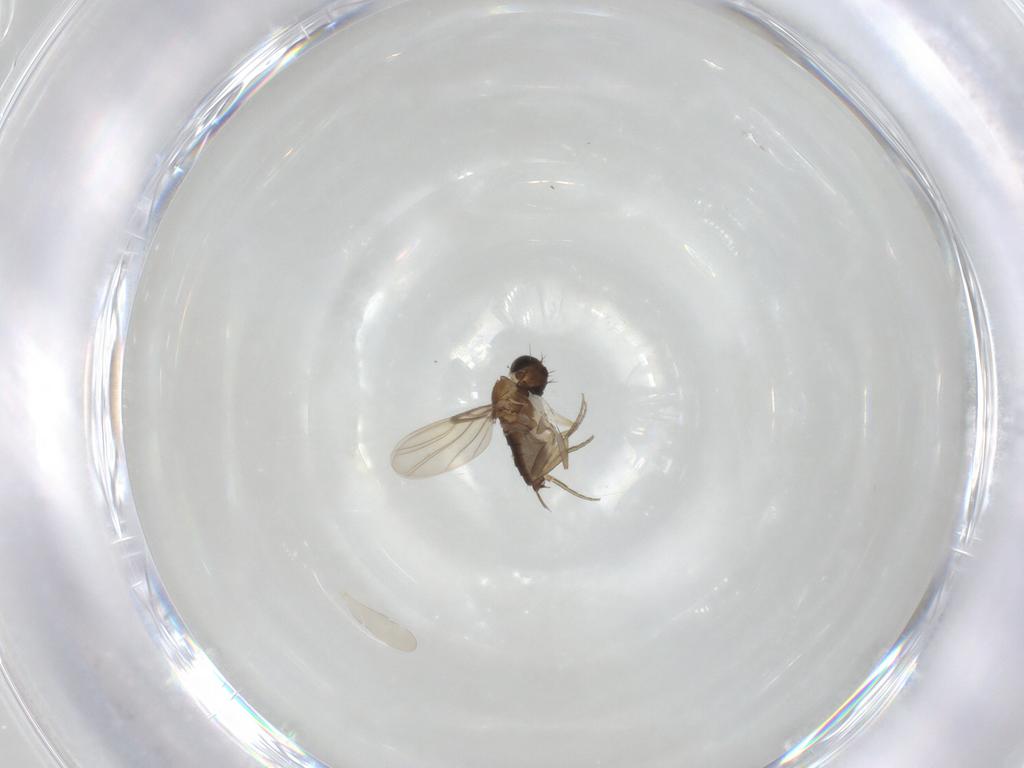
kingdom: Animalia
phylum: Arthropoda
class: Insecta
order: Diptera
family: Phoridae
